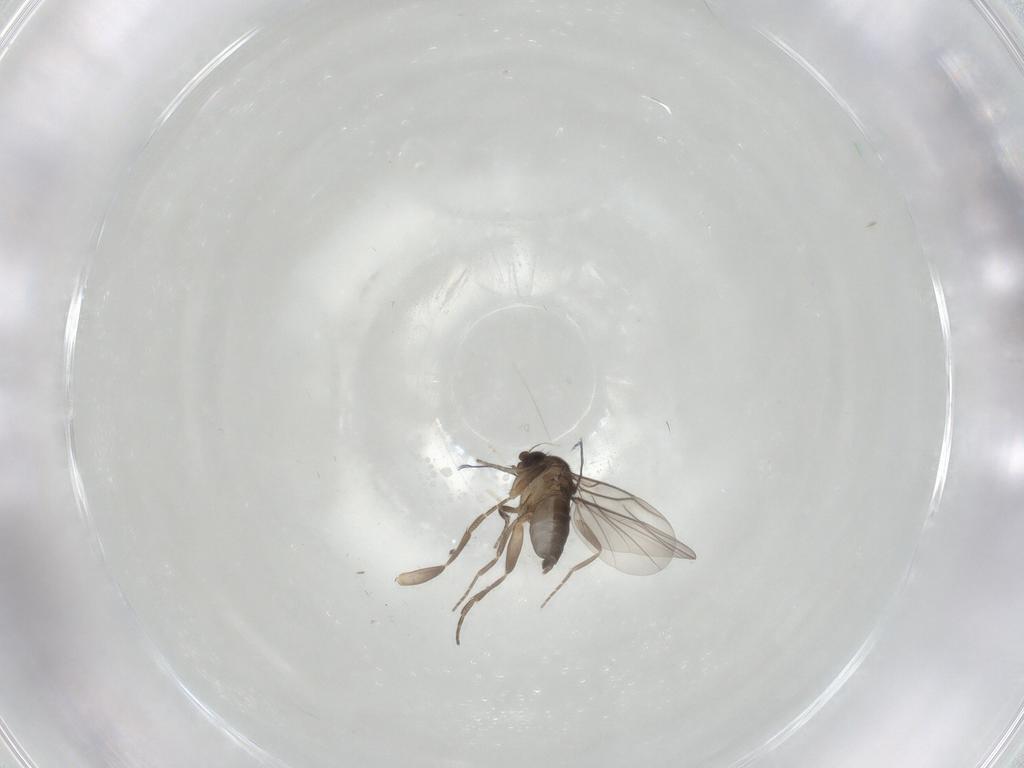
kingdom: Animalia
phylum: Arthropoda
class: Insecta
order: Diptera
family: Phoridae
